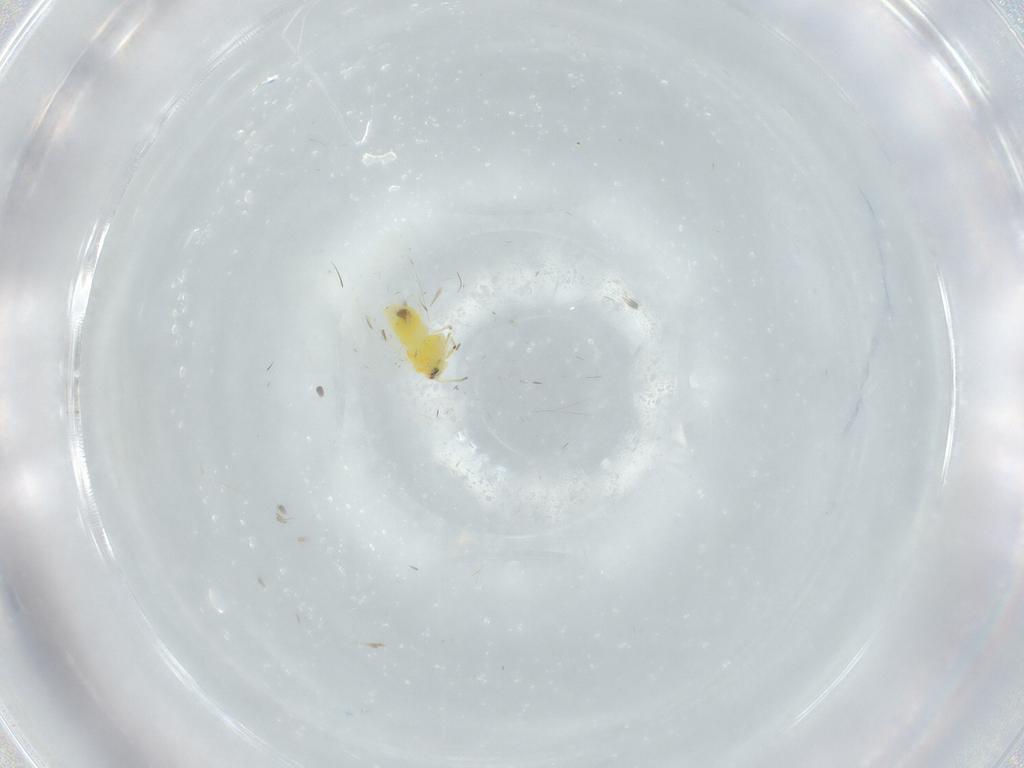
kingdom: Animalia
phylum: Arthropoda
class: Insecta
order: Hemiptera
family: Aleyrodidae
